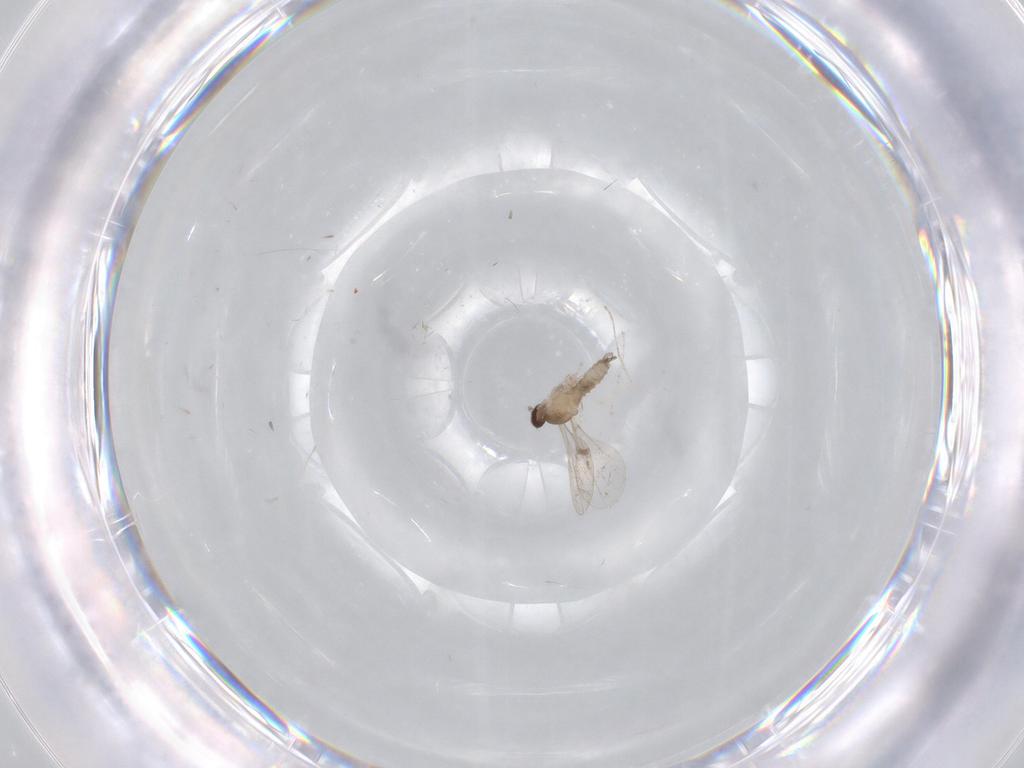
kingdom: Animalia
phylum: Arthropoda
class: Insecta
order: Diptera
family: Cecidomyiidae
